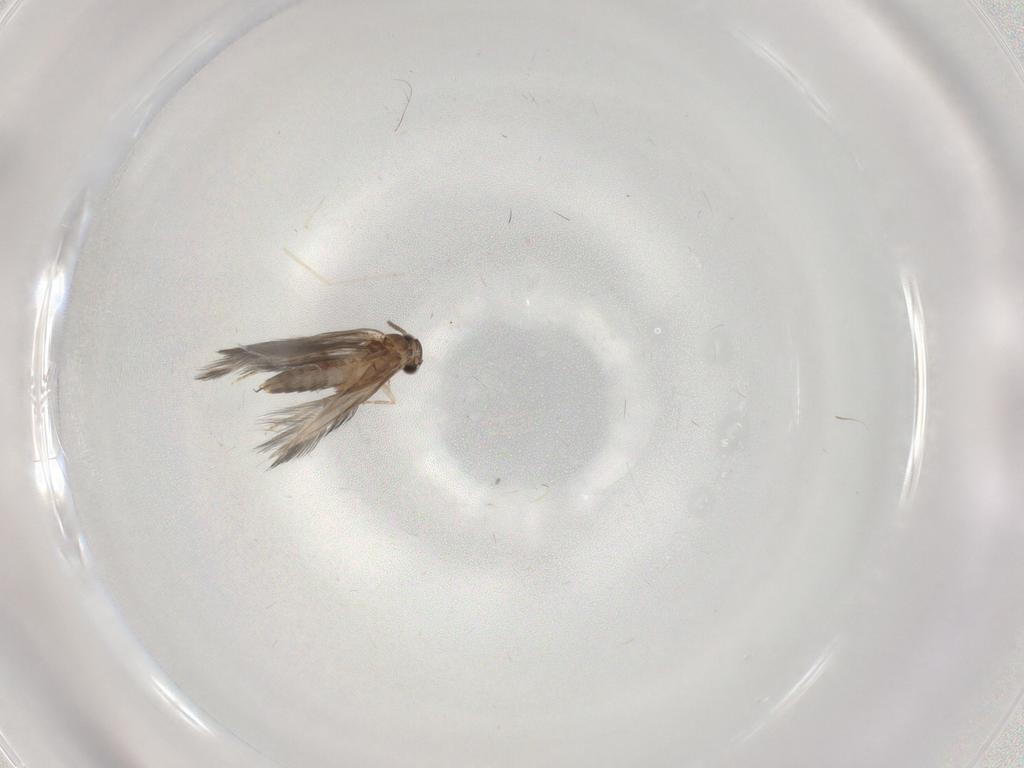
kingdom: Animalia
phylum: Arthropoda
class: Insecta
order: Trichoptera
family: Hydroptilidae
